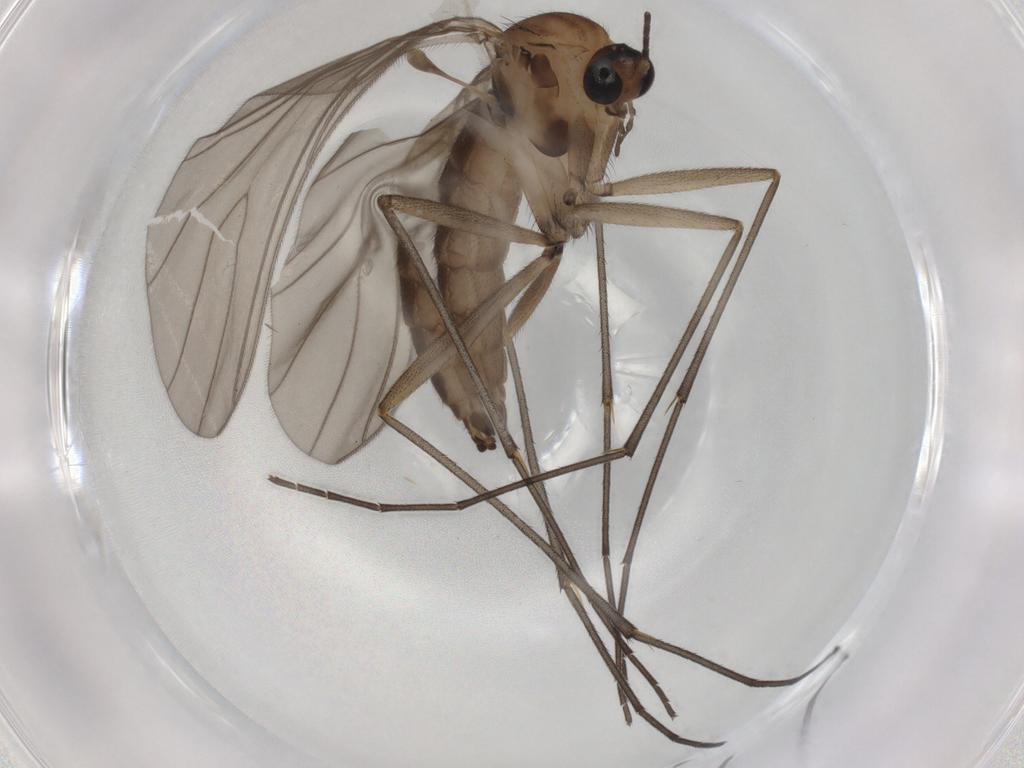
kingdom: Animalia
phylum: Arthropoda
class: Insecta
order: Diptera
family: Sciaridae
